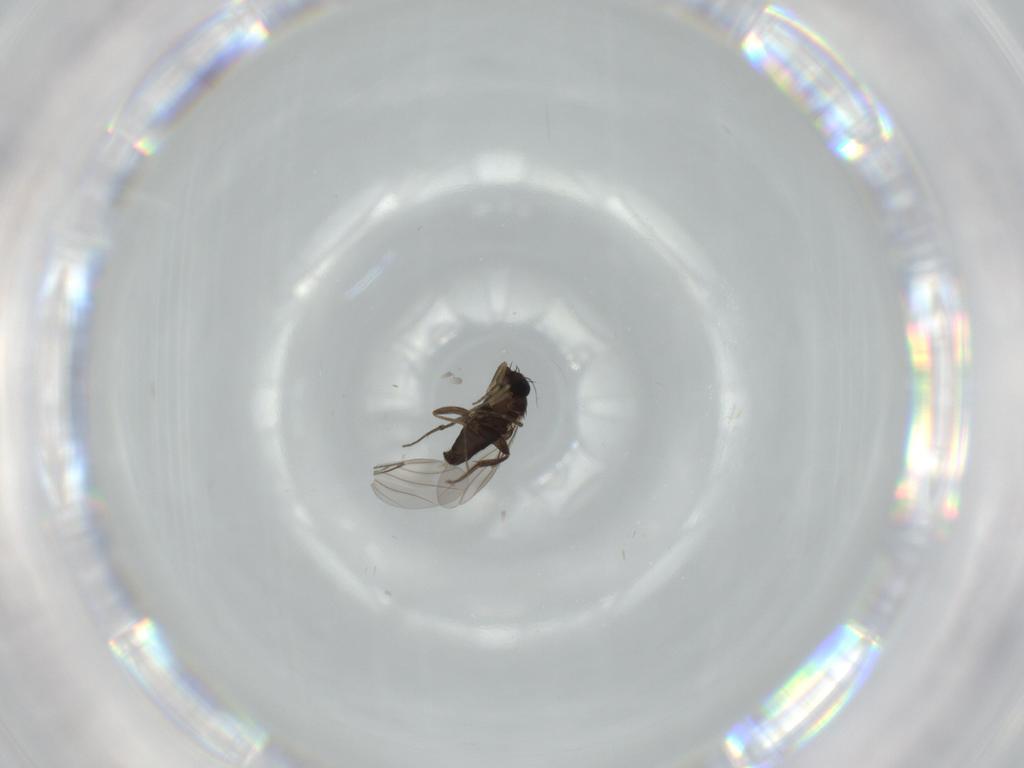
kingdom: Animalia
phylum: Arthropoda
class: Insecta
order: Diptera
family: Phoridae
